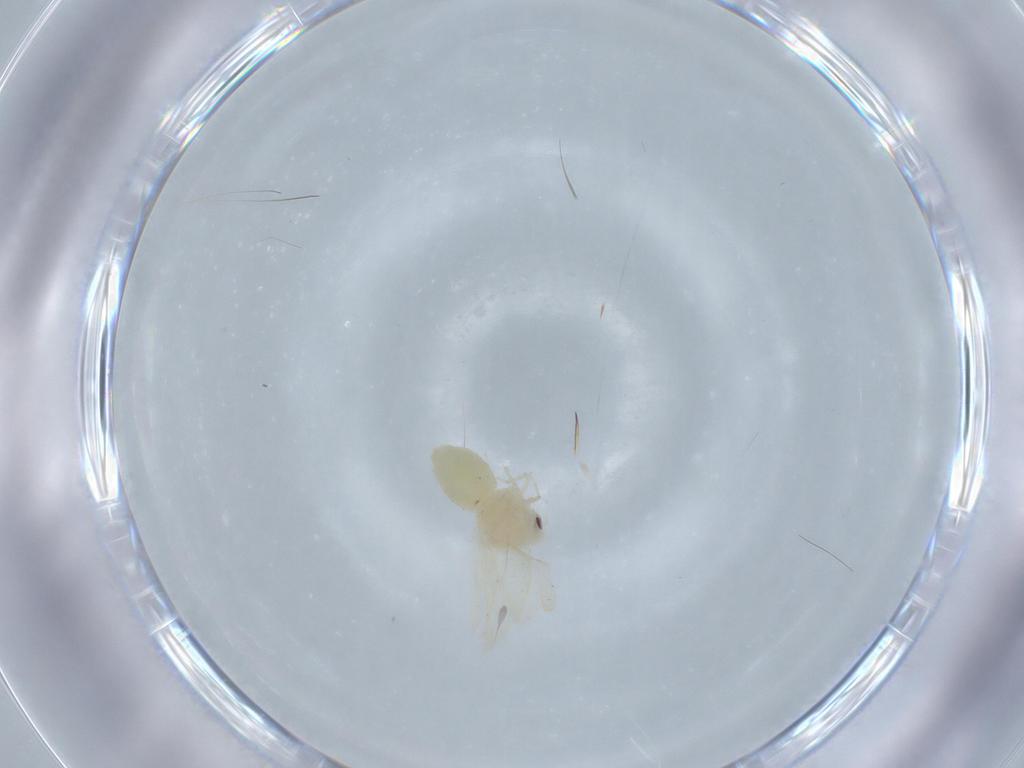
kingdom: Animalia
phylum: Arthropoda
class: Insecta
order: Hemiptera
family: Aleyrodidae
